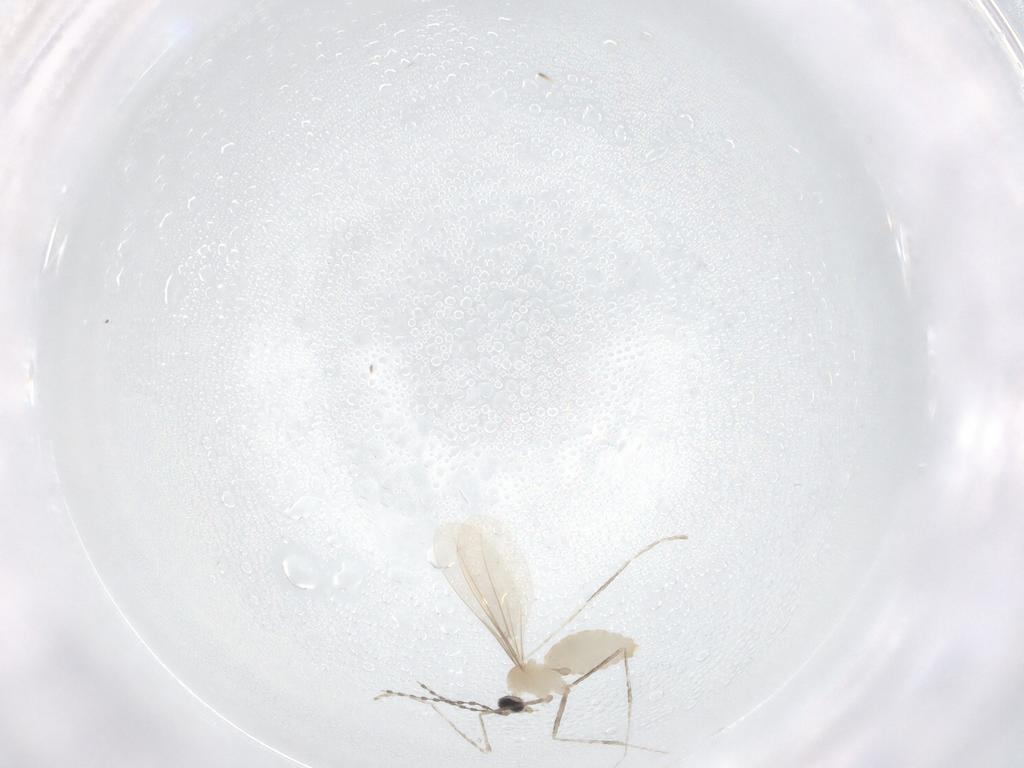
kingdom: Animalia
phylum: Arthropoda
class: Insecta
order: Diptera
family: Cecidomyiidae
